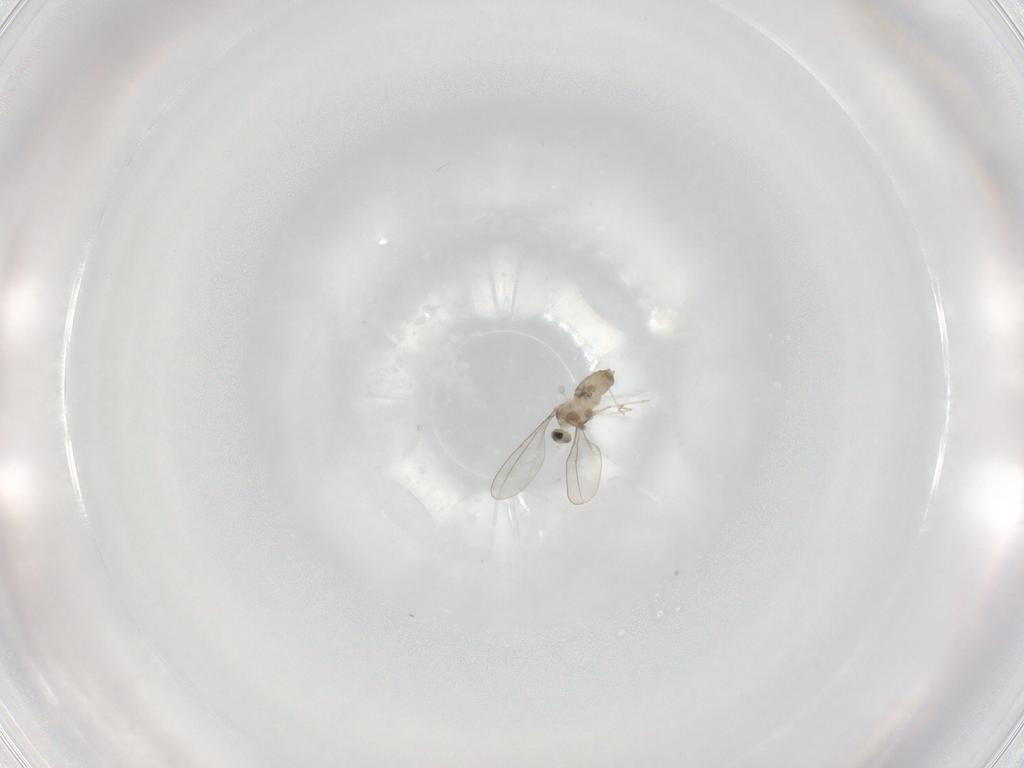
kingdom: Animalia
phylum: Arthropoda
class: Insecta
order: Diptera
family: Cecidomyiidae
